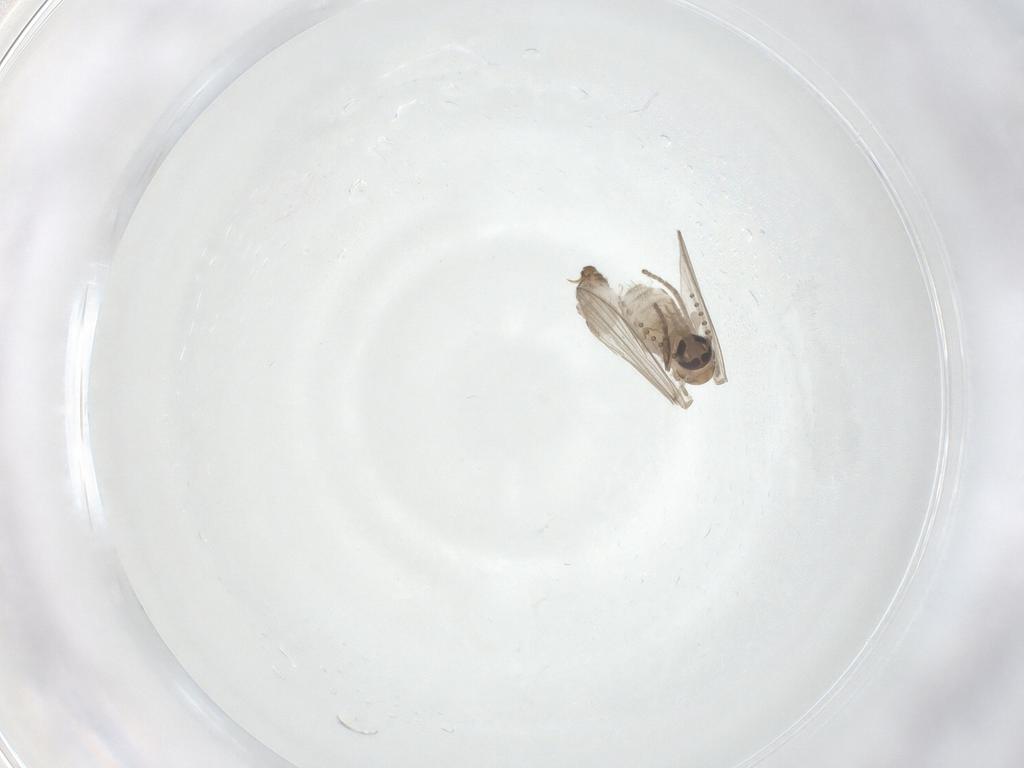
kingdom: Animalia
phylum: Arthropoda
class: Insecta
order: Diptera
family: Psychodidae
